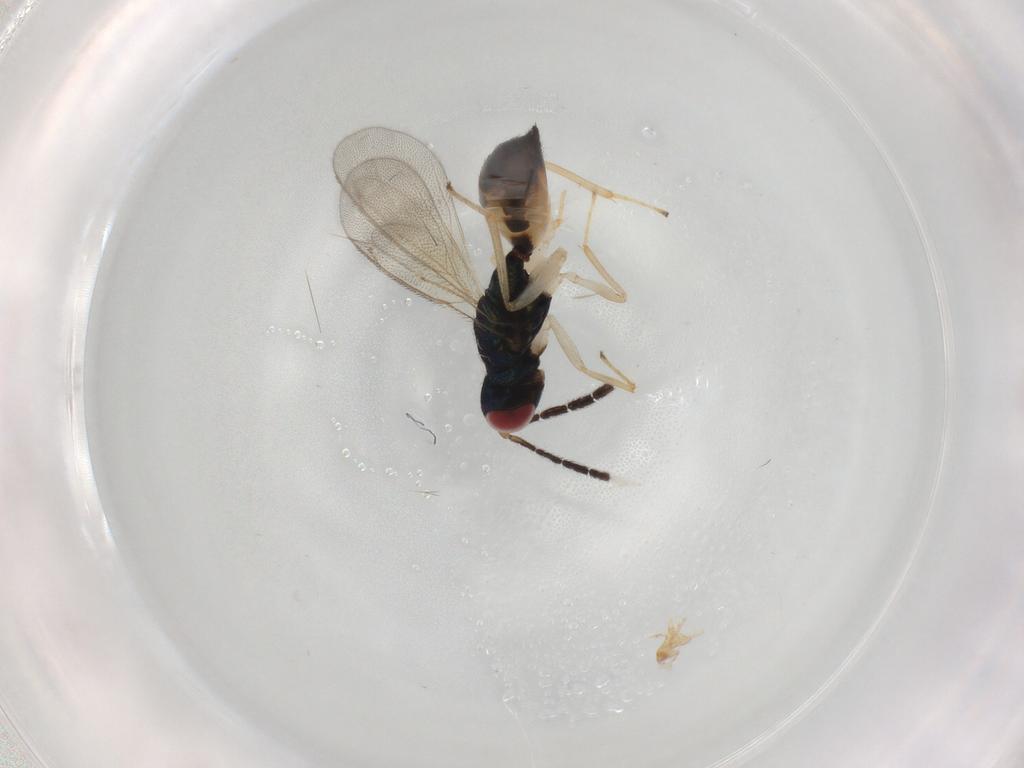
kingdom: Animalia
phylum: Arthropoda
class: Insecta
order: Hymenoptera
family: Eulophidae
